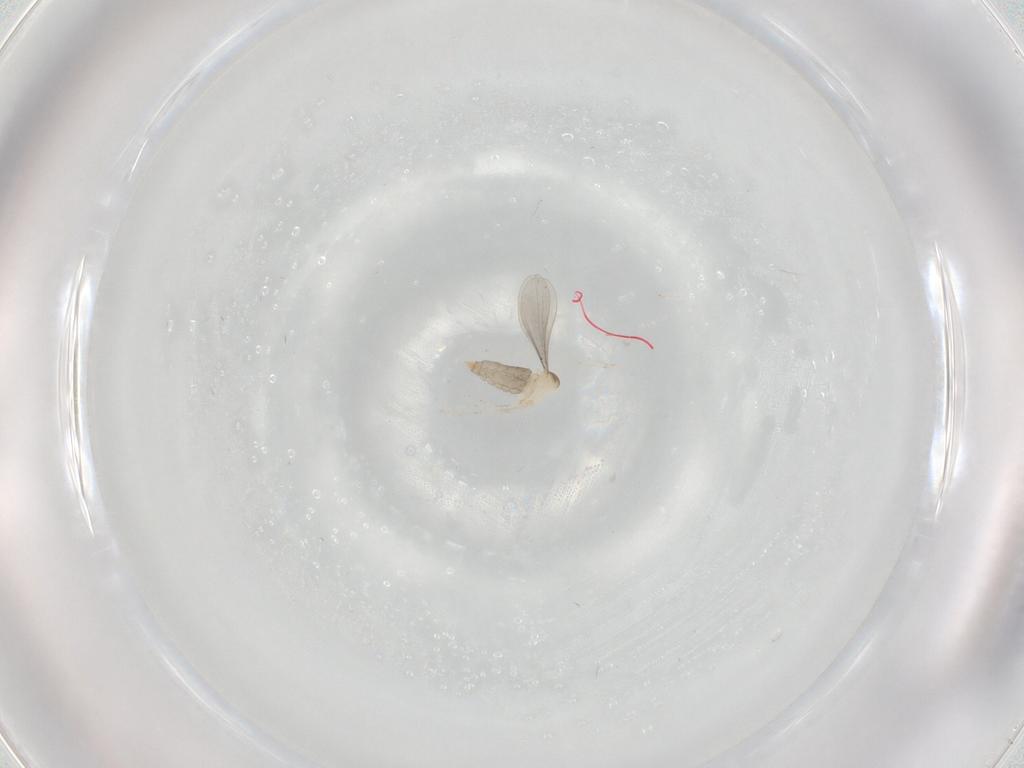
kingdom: Animalia
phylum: Arthropoda
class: Insecta
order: Diptera
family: Cecidomyiidae
